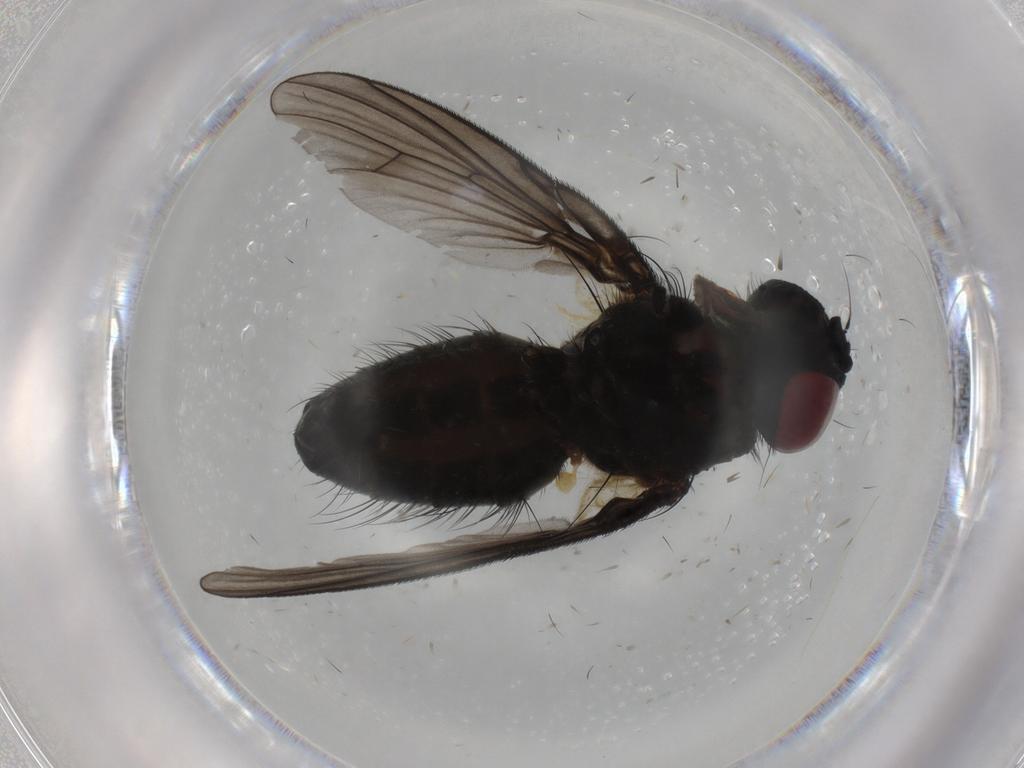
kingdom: Animalia
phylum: Arthropoda
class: Insecta
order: Diptera
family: Muscidae
